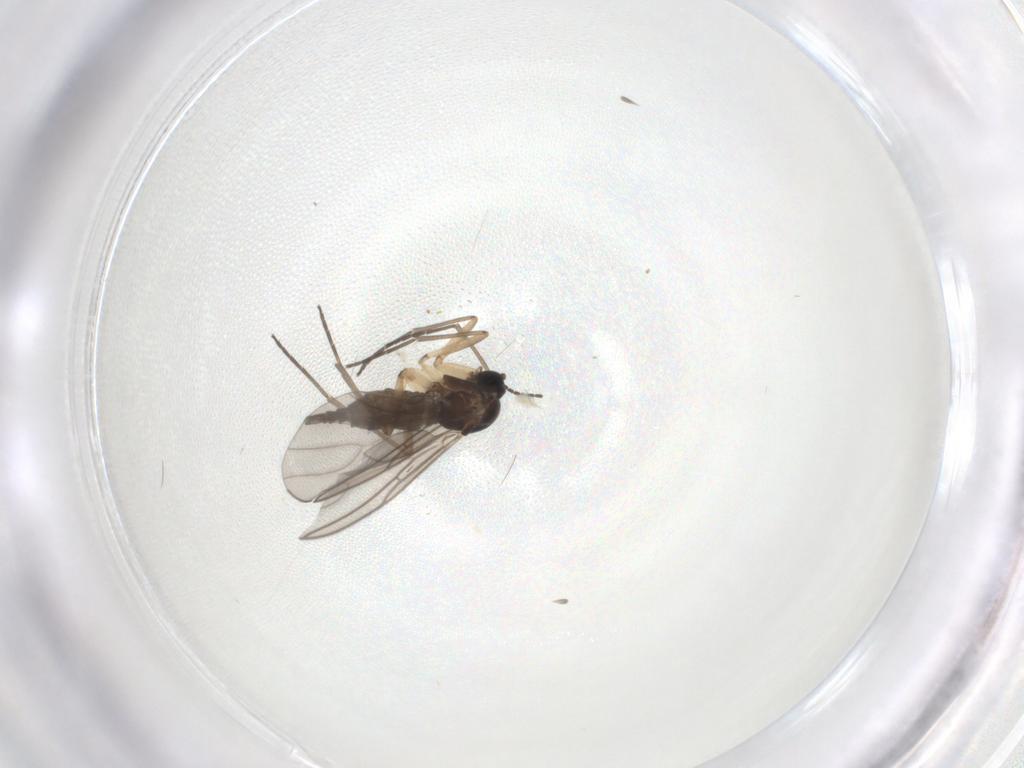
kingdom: Animalia
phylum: Arthropoda
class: Insecta
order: Diptera
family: Sciaridae
